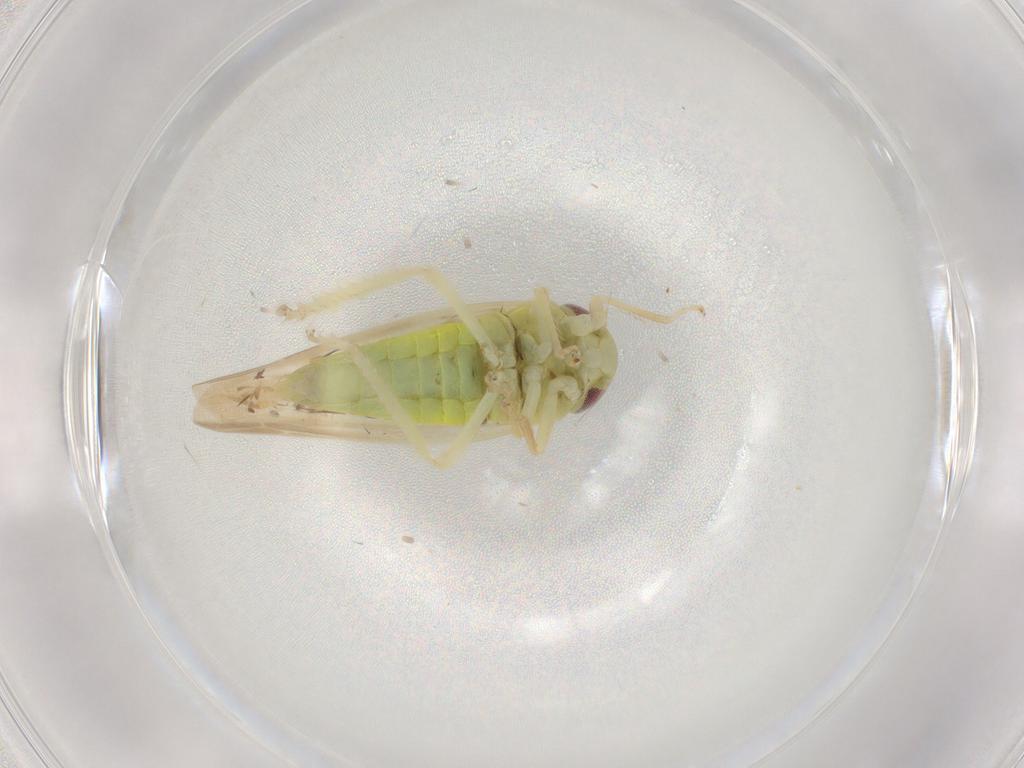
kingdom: Animalia
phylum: Arthropoda
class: Insecta
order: Hemiptera
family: Cicadellidae
